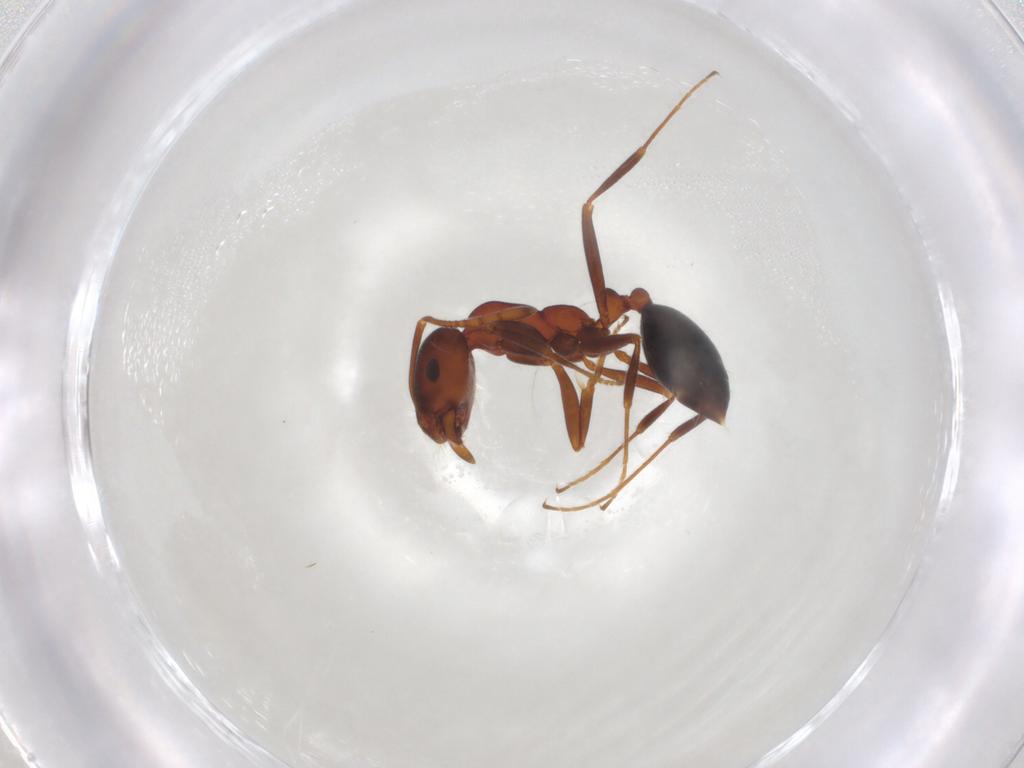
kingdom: Animalia
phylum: Arthropoda
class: Insecta
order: Hymenoptera
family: Formicidae
